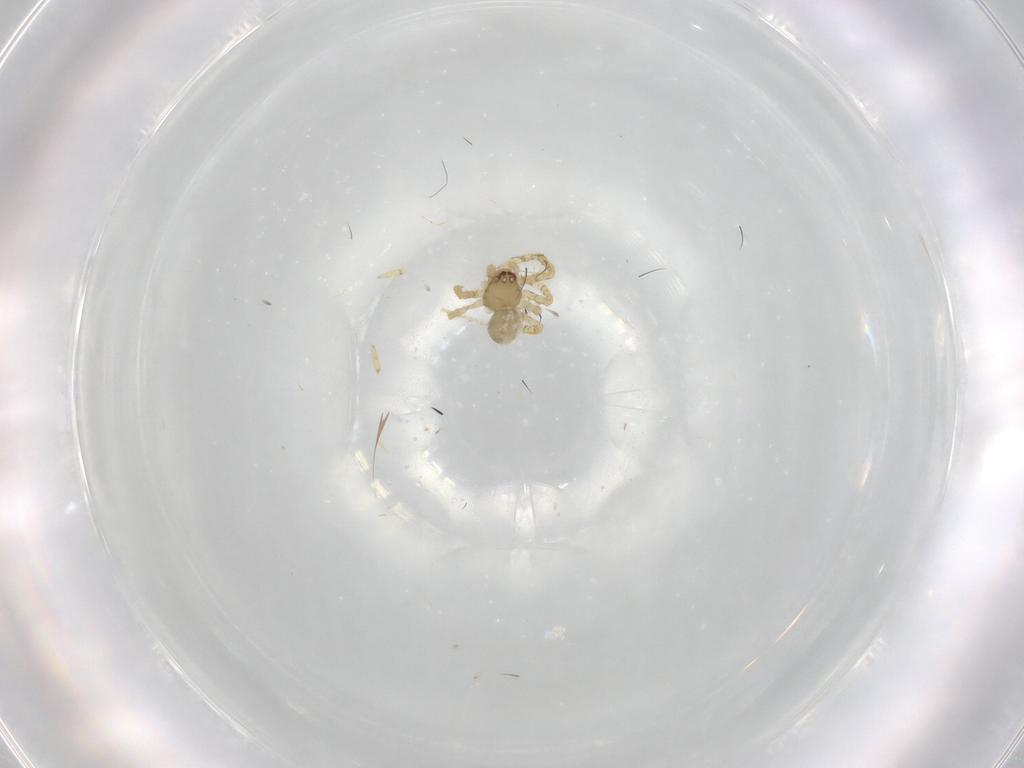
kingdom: Animalia
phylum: Arthropoda
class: Arachnida
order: Araneae
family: Theridiidae
